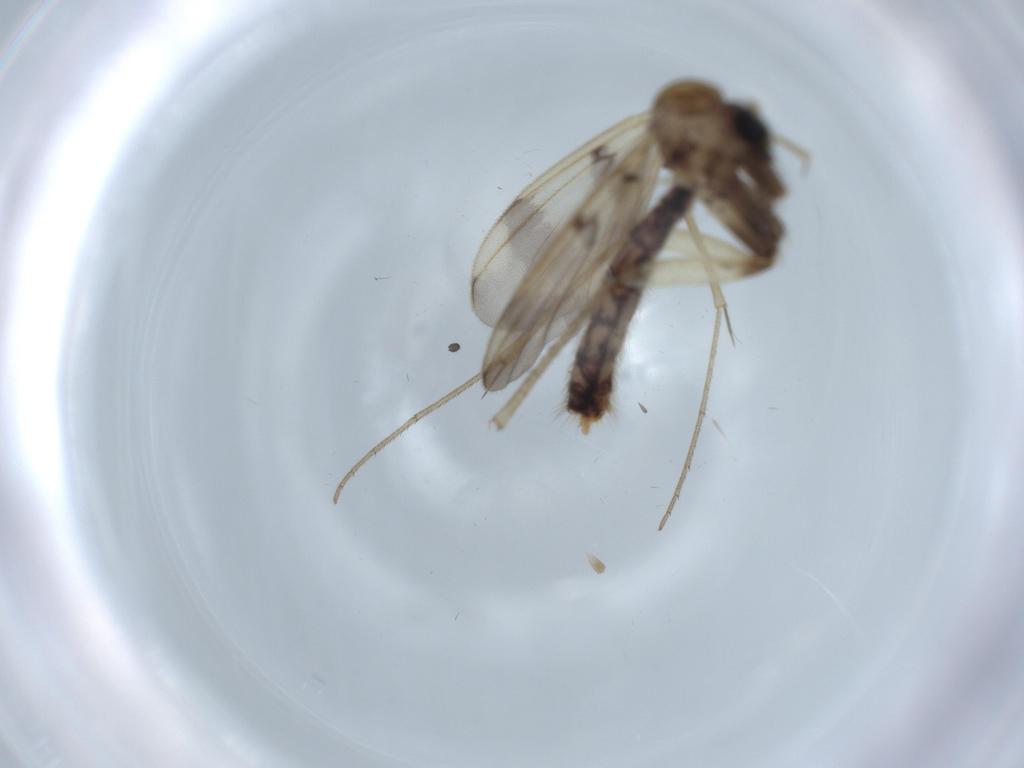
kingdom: Animalia
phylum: Arthropoda
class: Insecta
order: Diptera
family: Mycetophilidae
